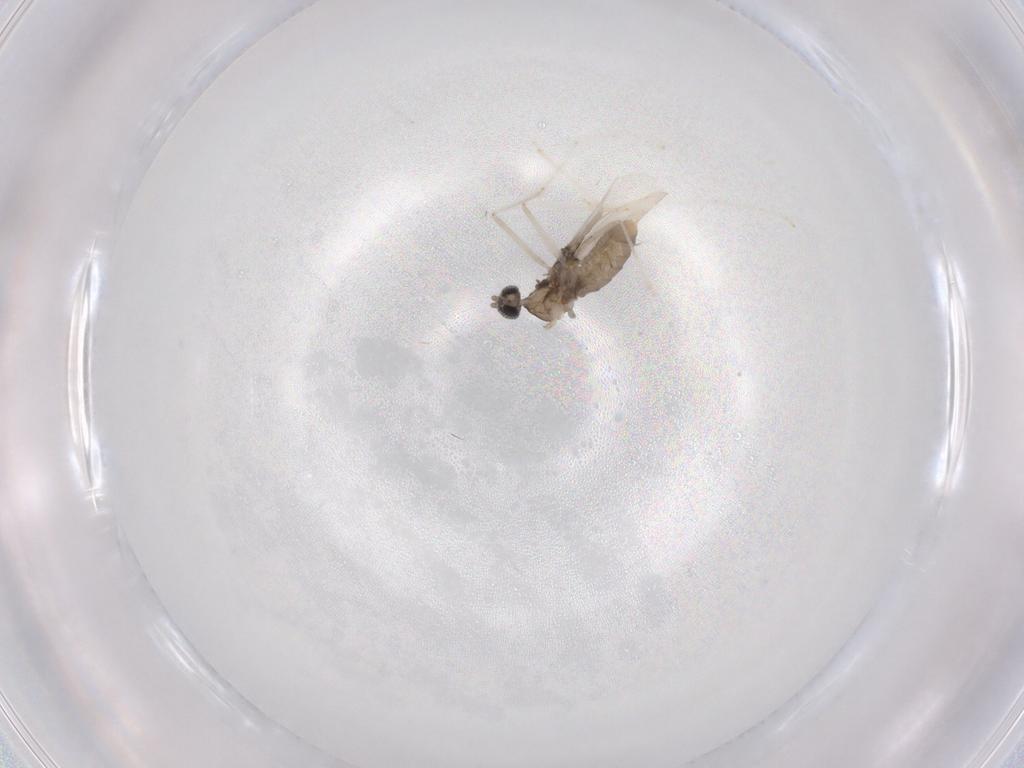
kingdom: Animalia
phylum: Arthropoda
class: Insecta
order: Diptera
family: Cecidomyiidae
